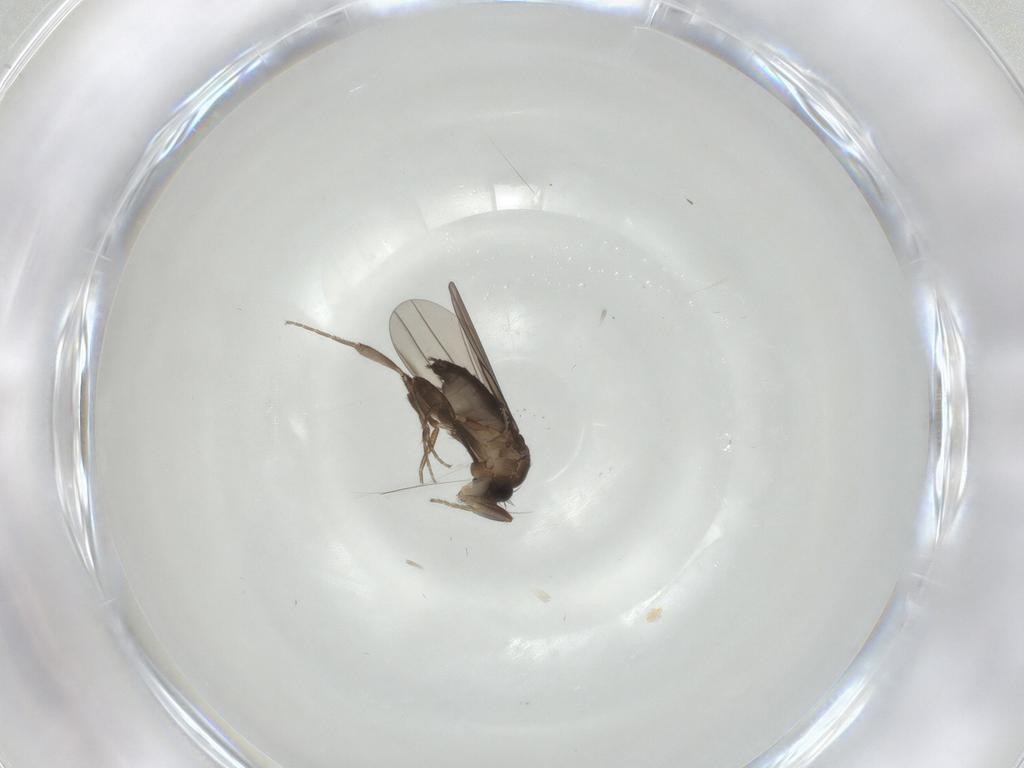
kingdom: Animalia
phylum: Arthropoda
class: Insecta
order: Diptera
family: Phoridae
